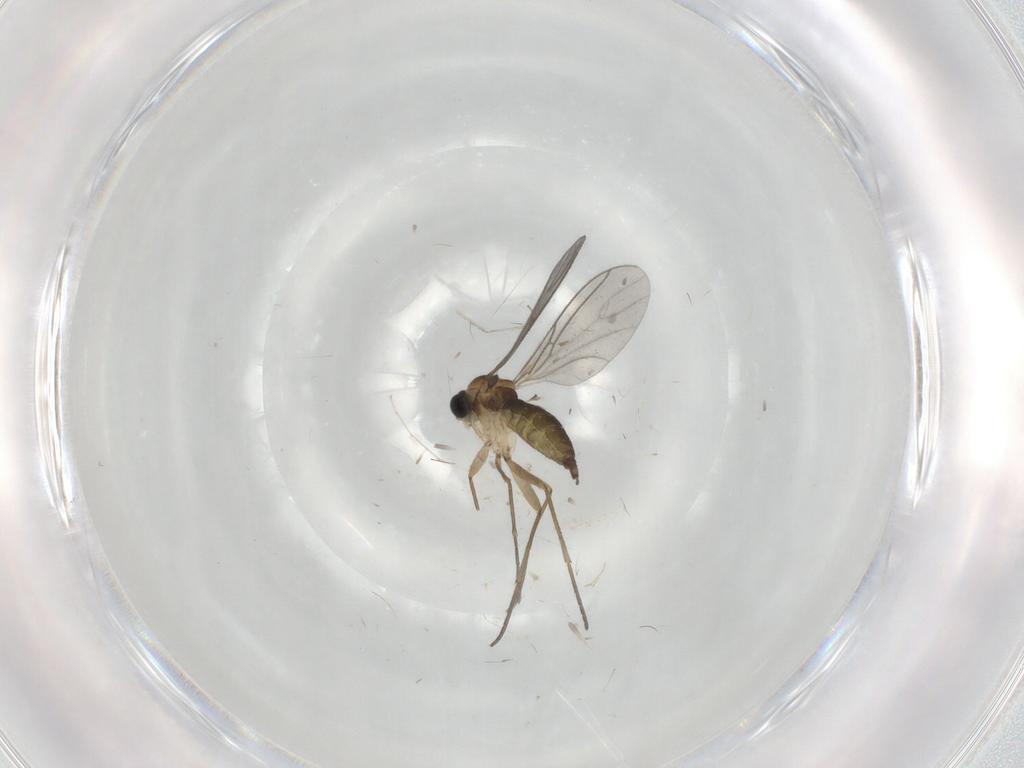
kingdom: Animalia
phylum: Arthropoda
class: Insecta
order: Diptera
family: Sciaridae
